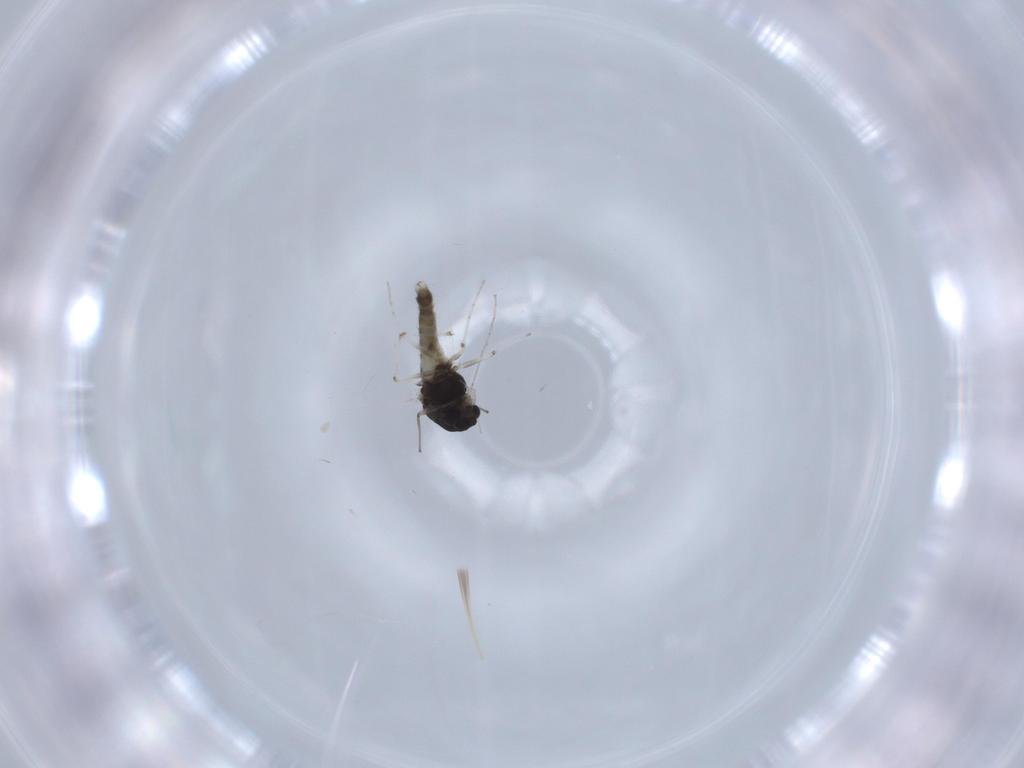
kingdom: Animalia
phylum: Arthropoda
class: Insecta
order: Diptera
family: Chironomidae
